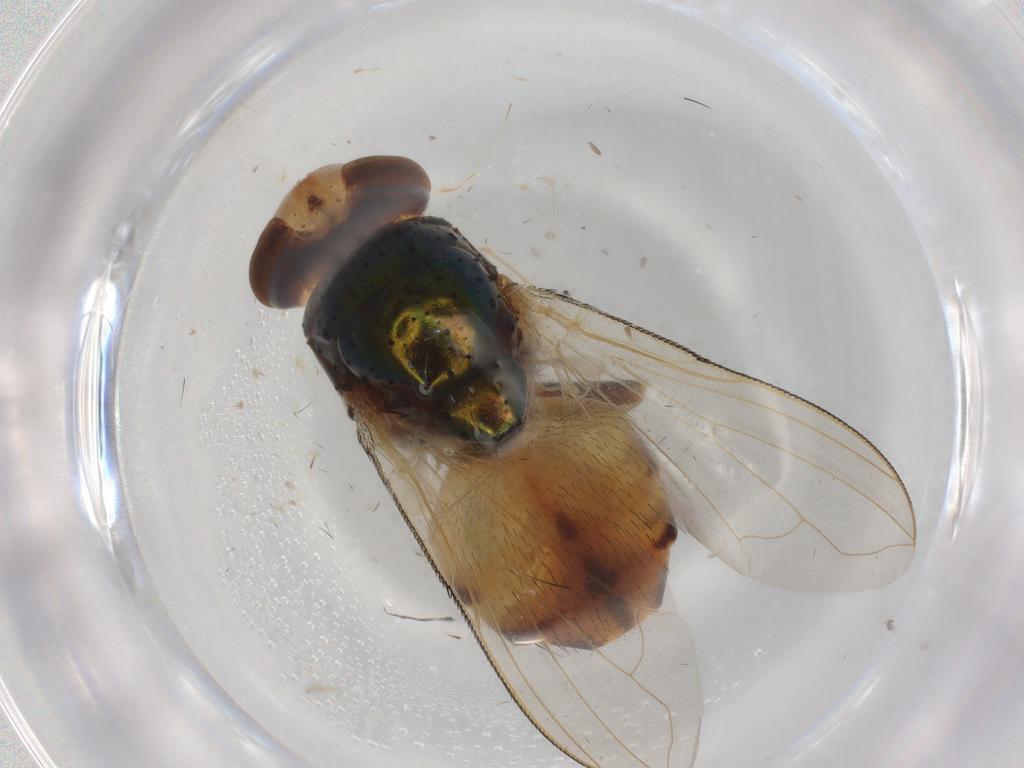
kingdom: Animalia
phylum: Arthropoda
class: Insecta
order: Diptera
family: Calliphoridae
